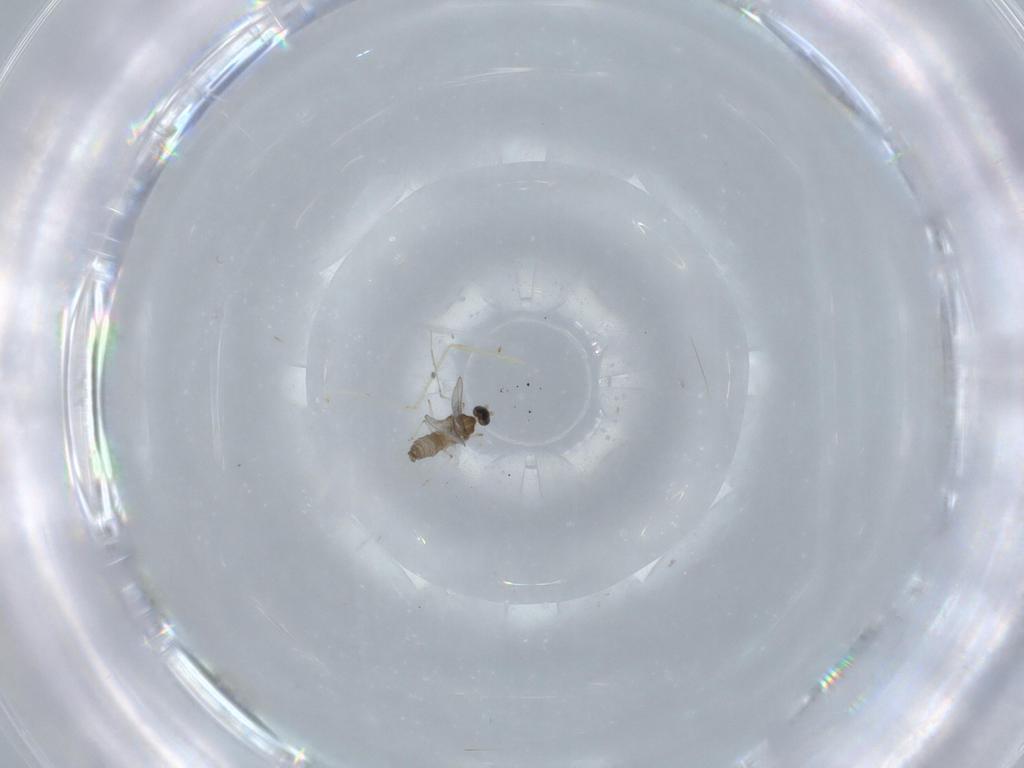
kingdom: Animalia
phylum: Arthropoda
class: Insecta
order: Diptera
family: Cecidomyiidae
